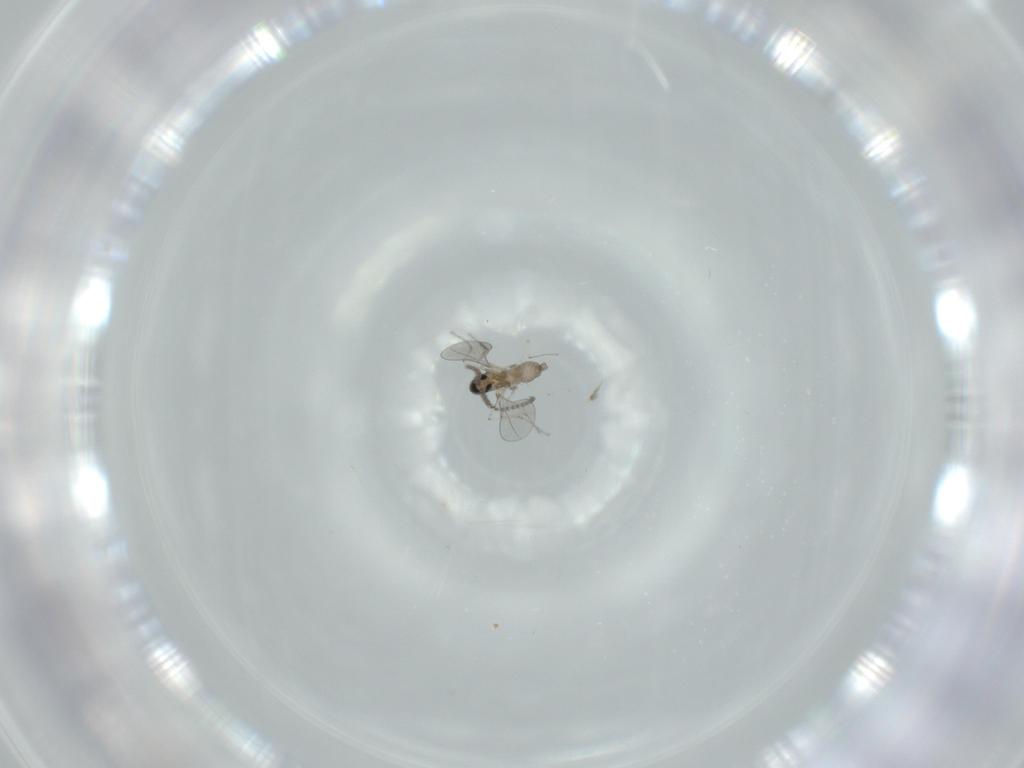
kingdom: Animalia
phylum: Arthropoda
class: Insecta
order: Diptera
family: Cecidomyiidae
